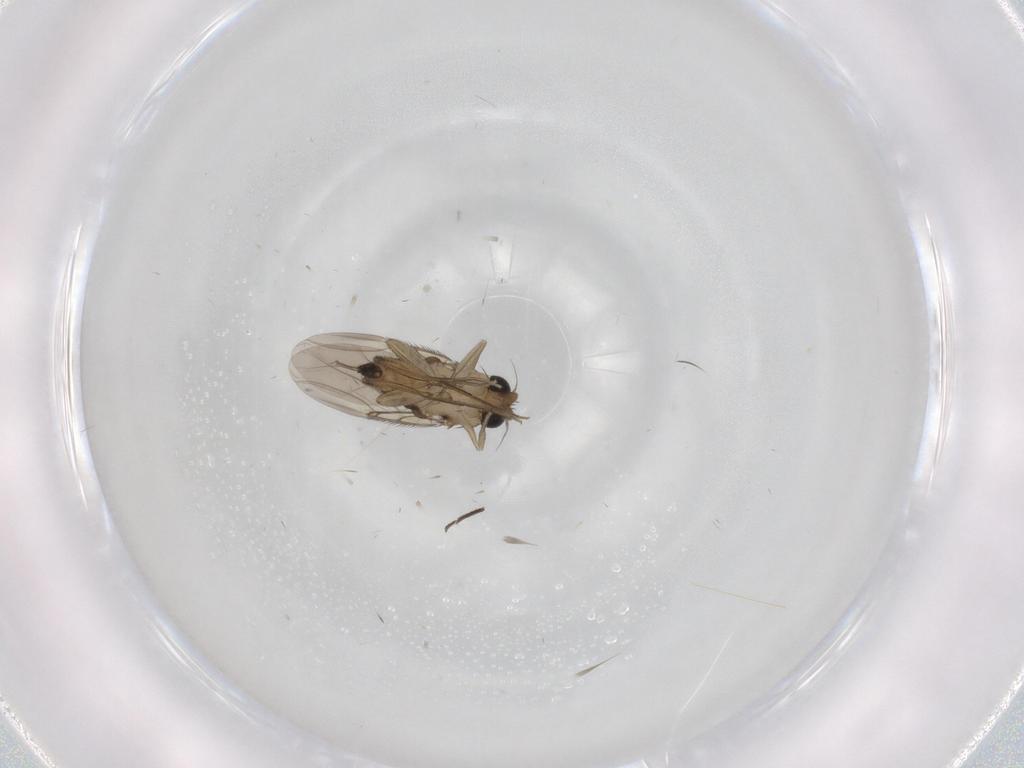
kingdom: Animalia
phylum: Arthropoda
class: Insecta
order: Diptera
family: Phoridae
